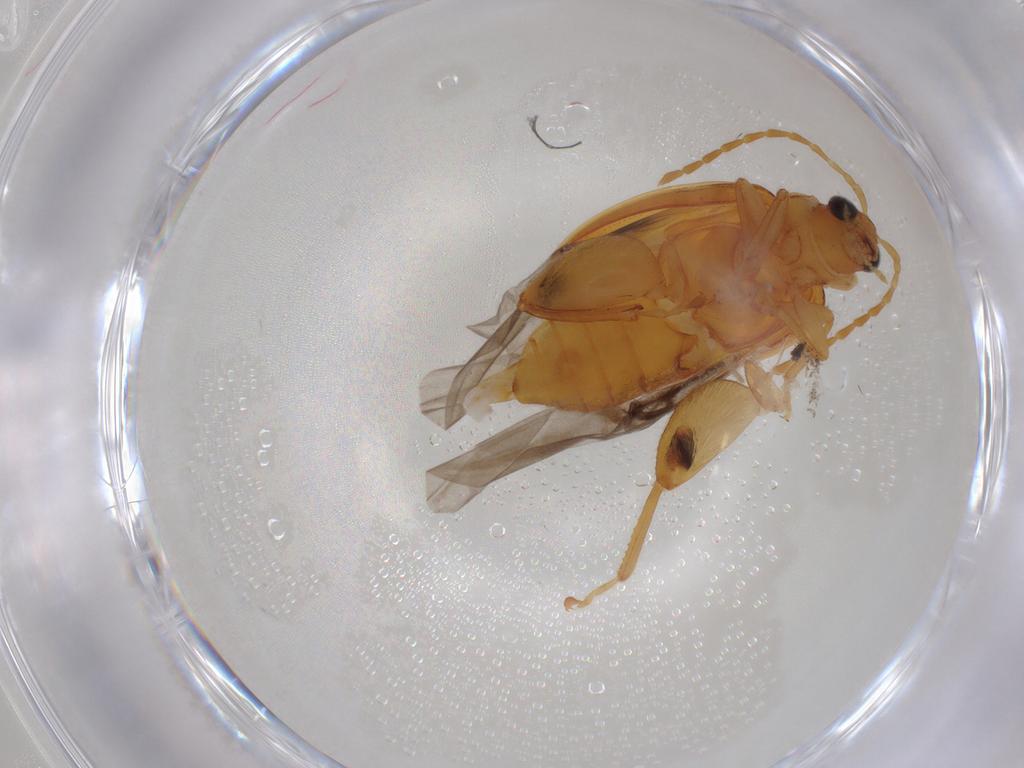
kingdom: Animalia
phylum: Arthropoda
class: Insecta
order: Coleoptera
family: Chrysomelidae
